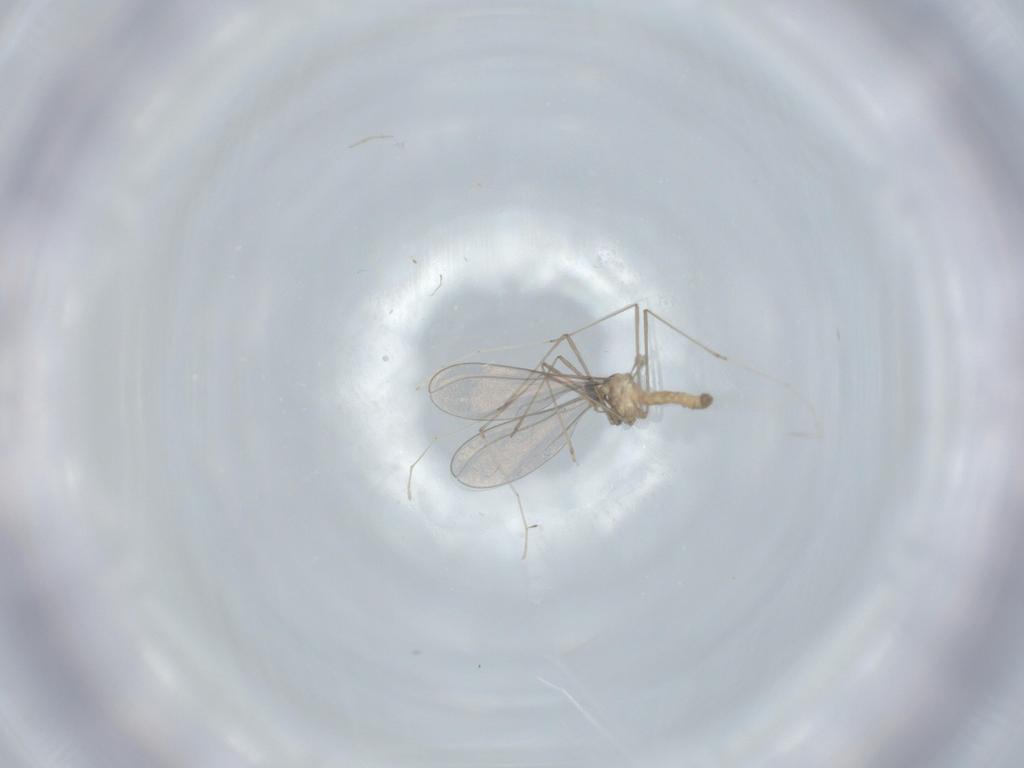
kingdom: Animalia
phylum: Arthropoda
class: Insecta
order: Diptera
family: Cecidomyiidae
